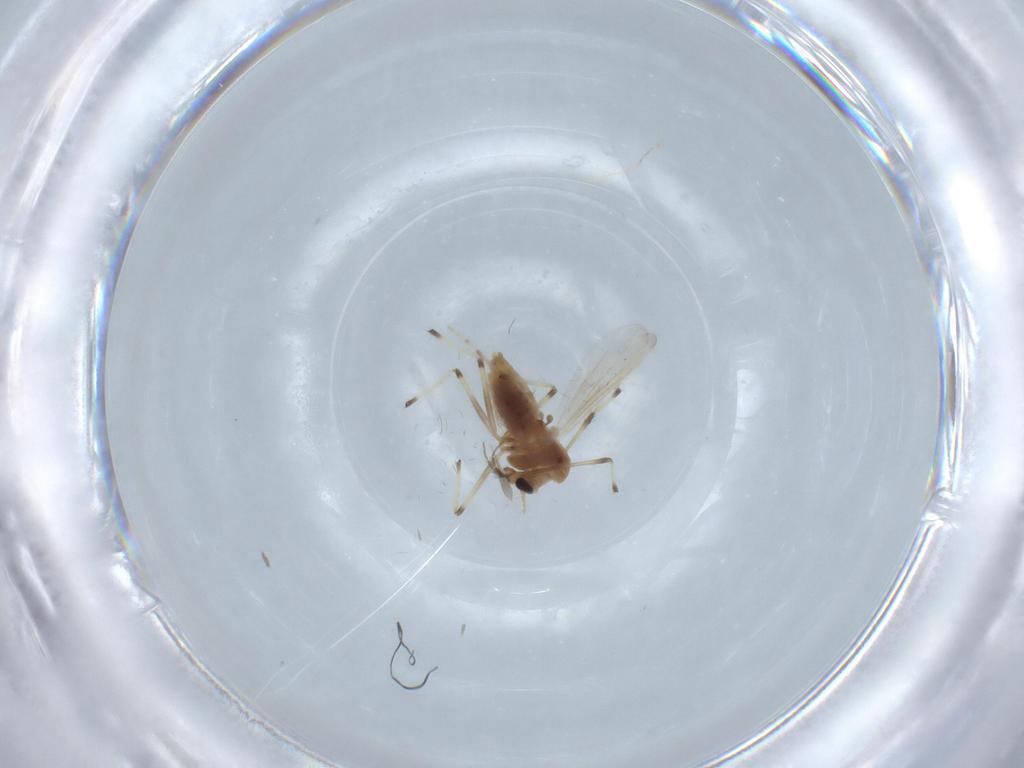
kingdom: Animalia
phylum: Arthropoda
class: Insecta
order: Diptera
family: Chironomidae
